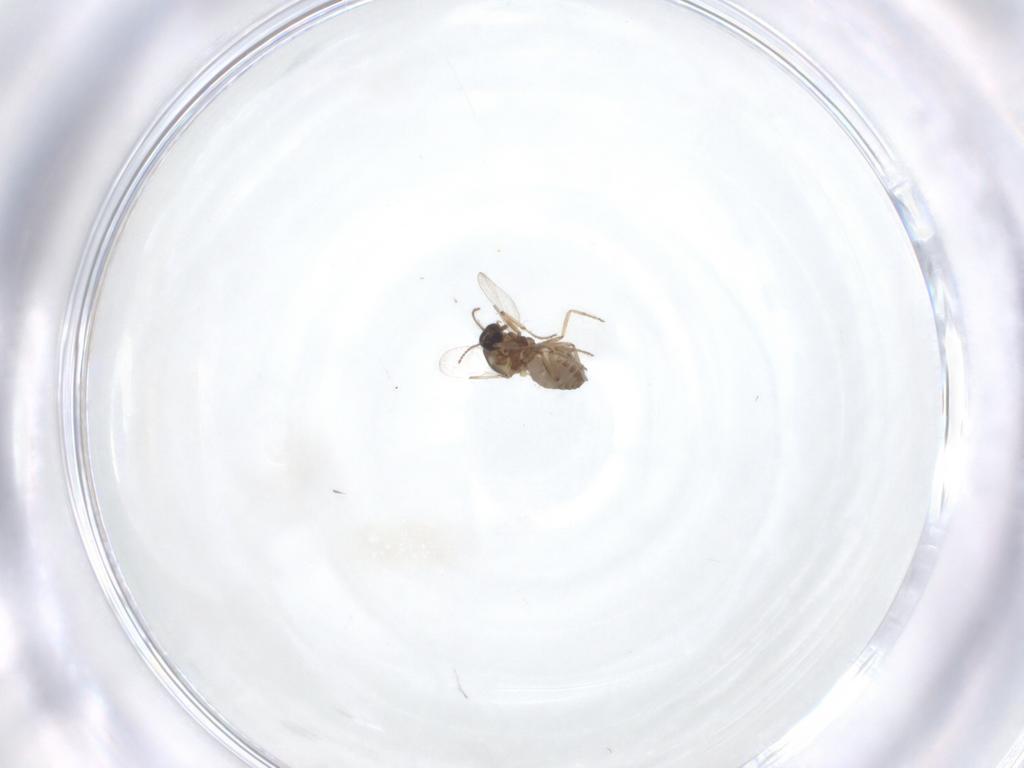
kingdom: Animalia
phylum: Arthropoda
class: Insecta
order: Diptera
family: Ceratopogonidae
